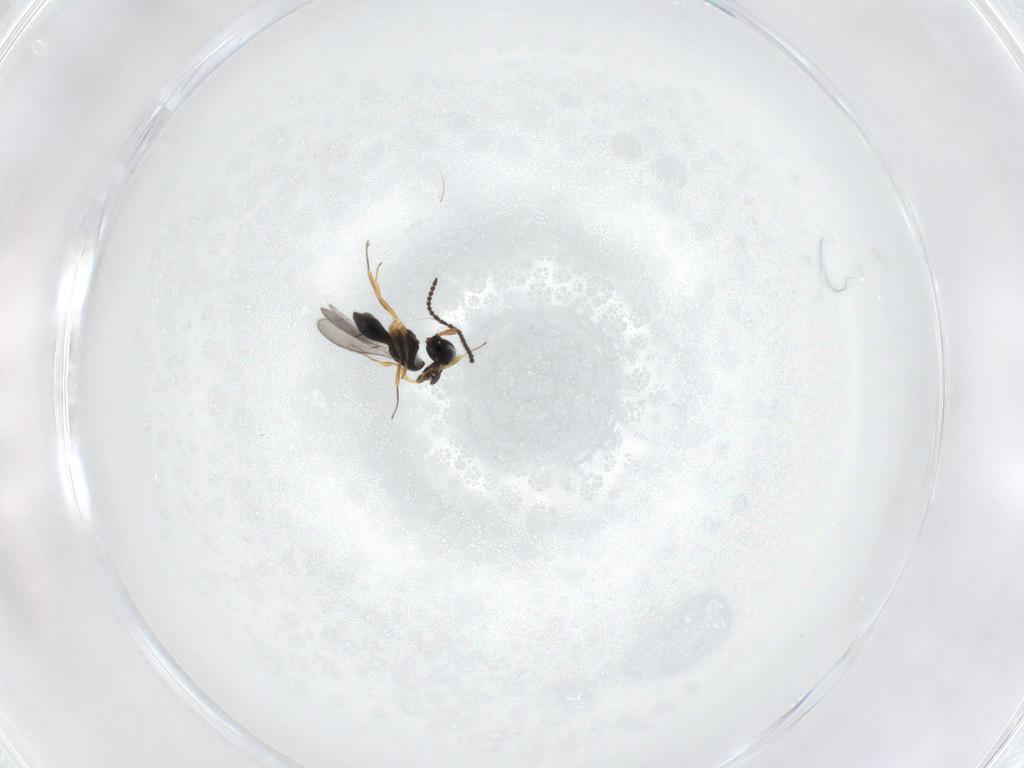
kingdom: Animalia
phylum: Arthropoda
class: Insecta
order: Hymenoptera
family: Scelionidae
